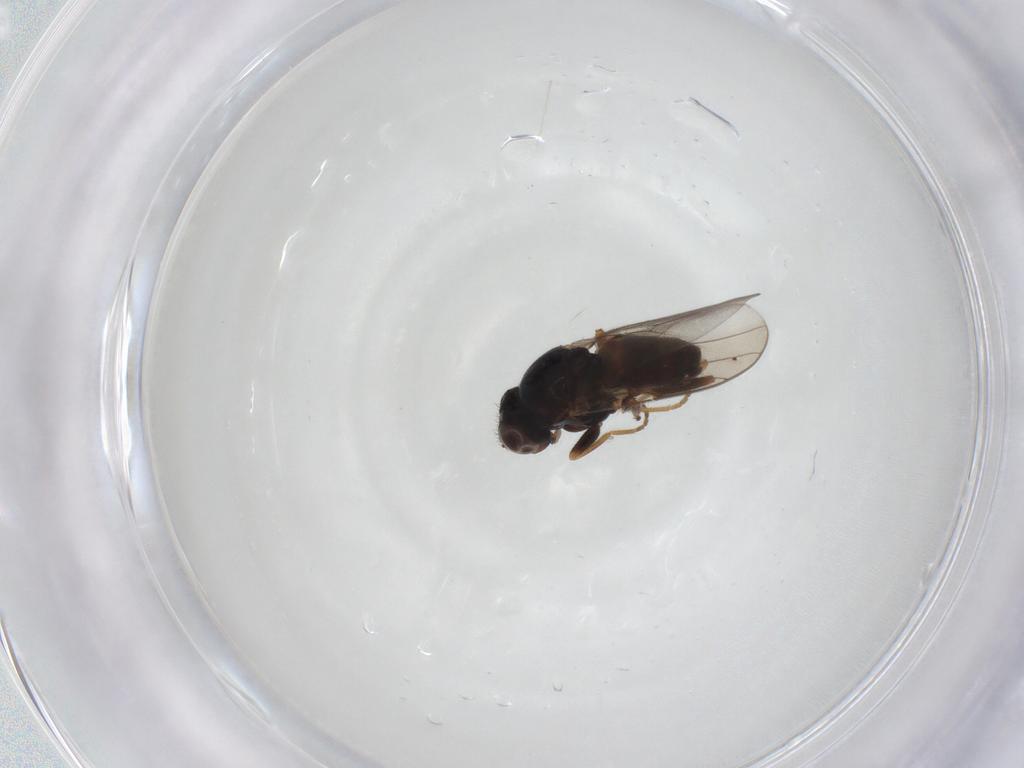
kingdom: Animalia
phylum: Arthropoda
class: Insecta
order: Diptera
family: Chloropidae
